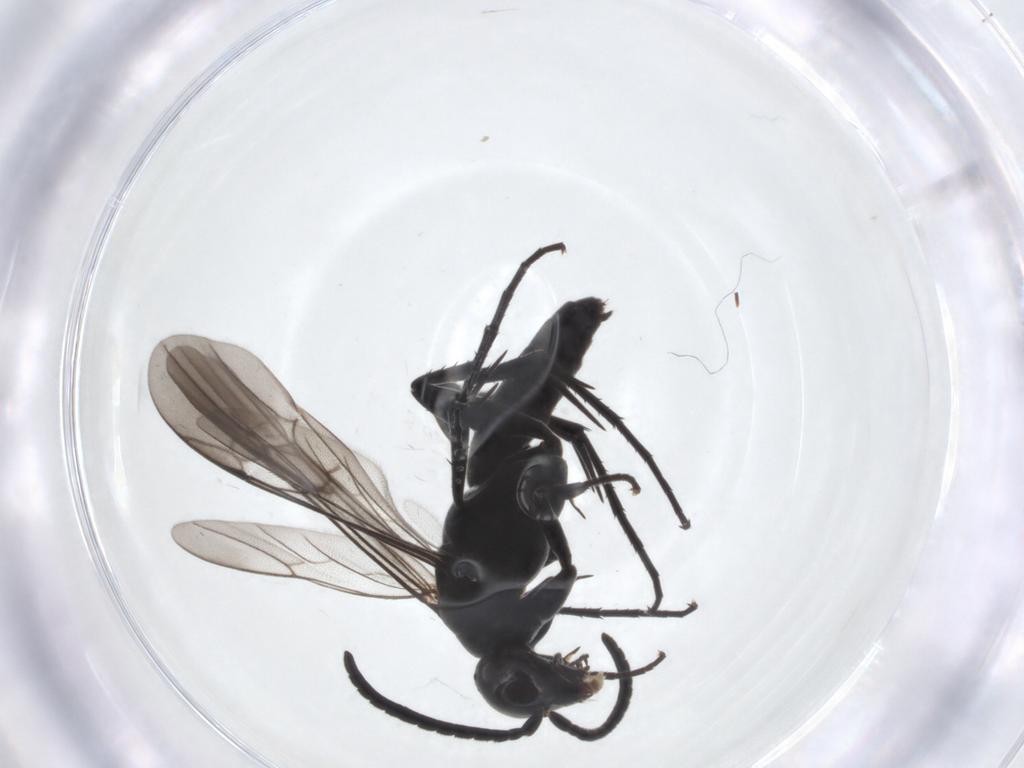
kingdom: Animalia
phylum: Arthropoda
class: Insecta
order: Hymenoptera
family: Pompilidae
